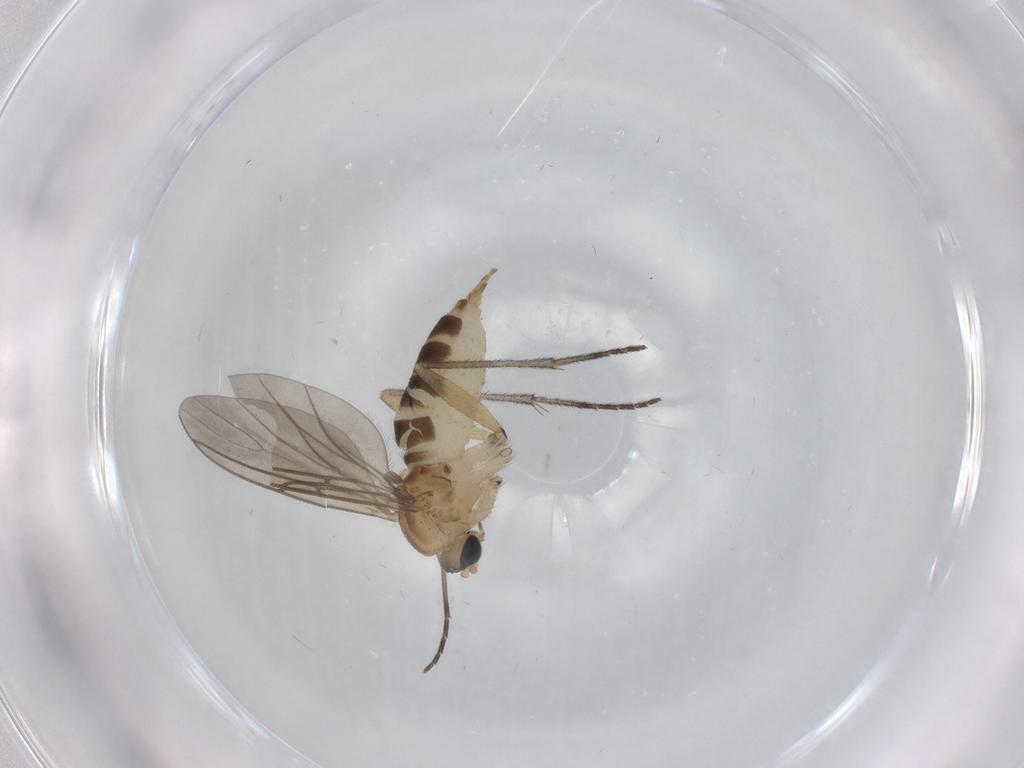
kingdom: Animalia
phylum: Arthropoda
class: Insecta
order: Diptera
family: Sciaridae
